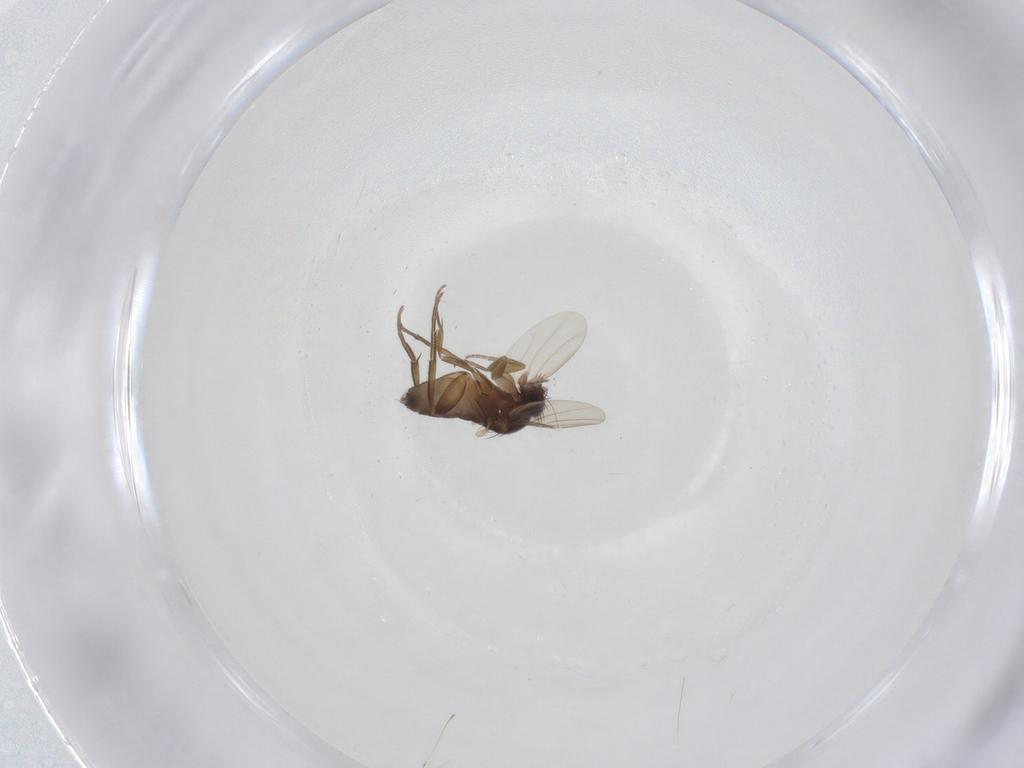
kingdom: Animalia
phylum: Arthropoda
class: Insecta
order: Diptera
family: Phoridae
